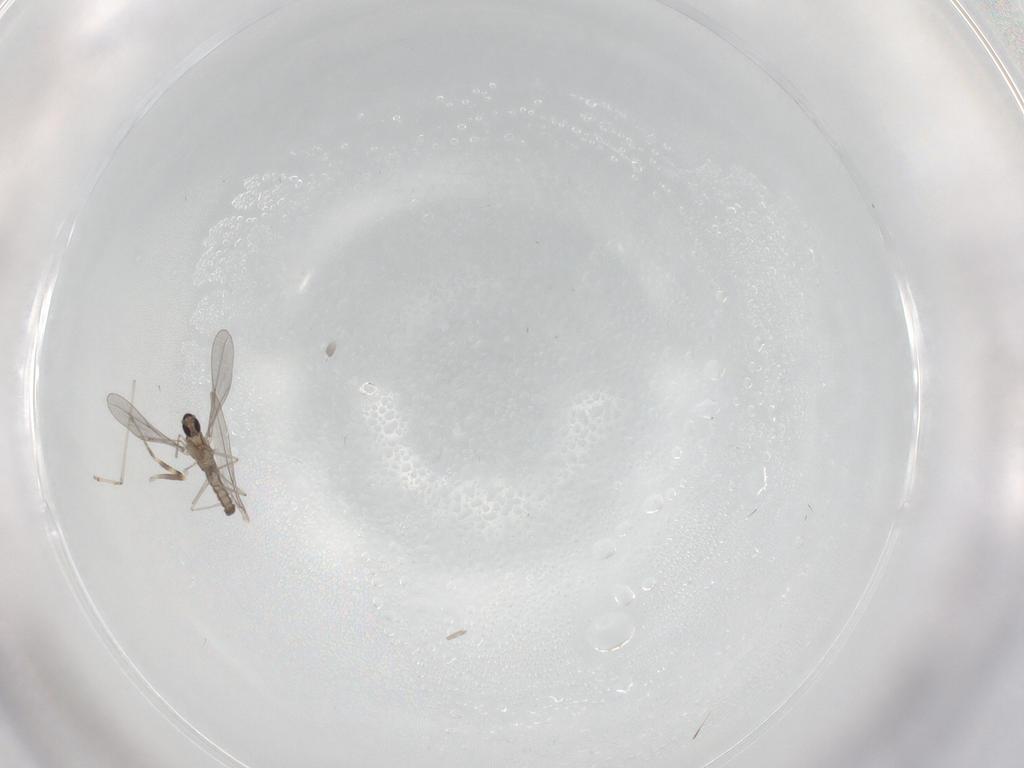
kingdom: Animalia
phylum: Arthropoda
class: Insecta
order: Diptera
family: Ceratopogonidae
